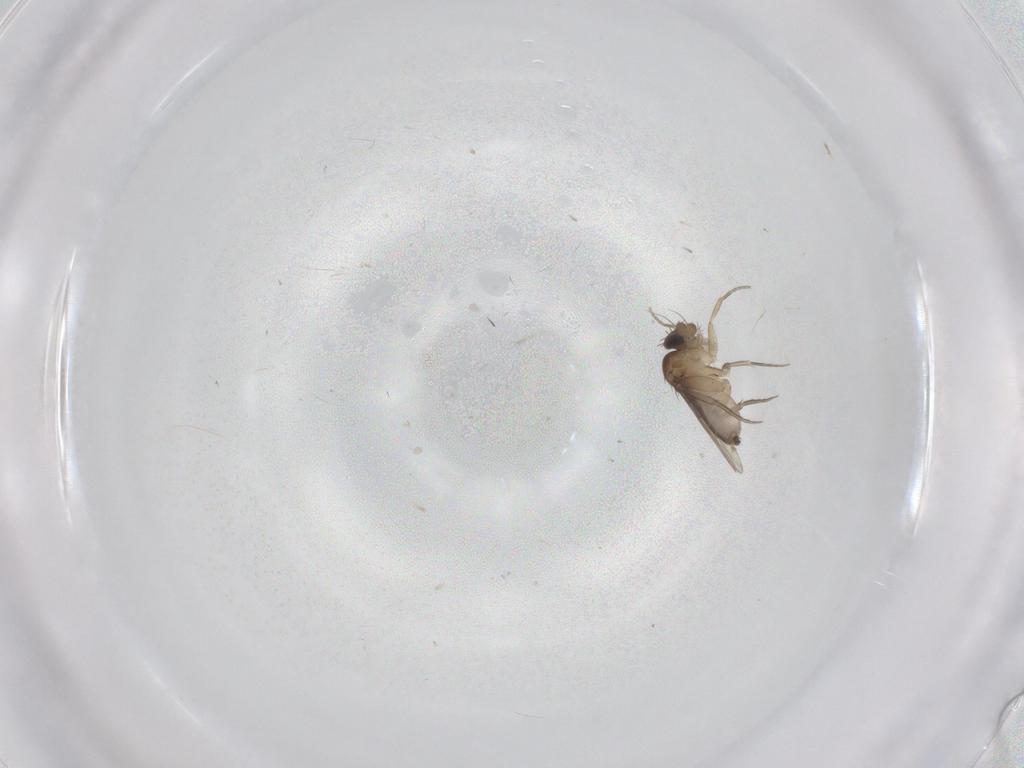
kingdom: Animalia
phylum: Arthropoda
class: Insecta
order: Diptera
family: Phoridae
